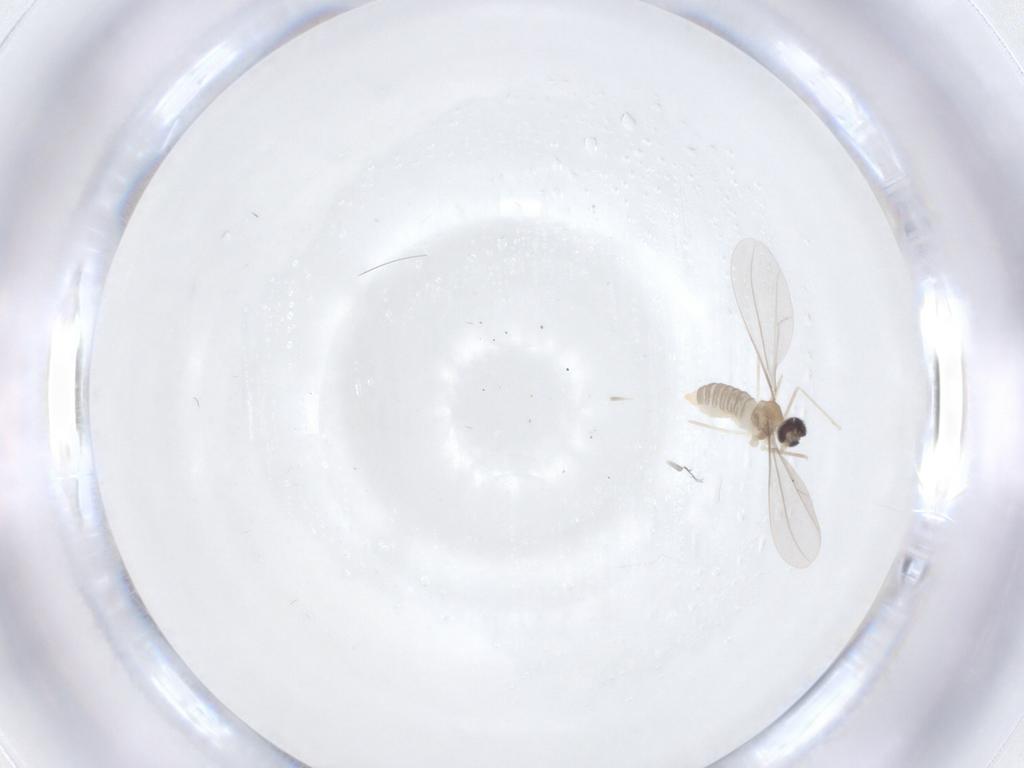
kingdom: Animalia
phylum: Arthropoda
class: Insecta
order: Diptera
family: Cecidomyiidae
